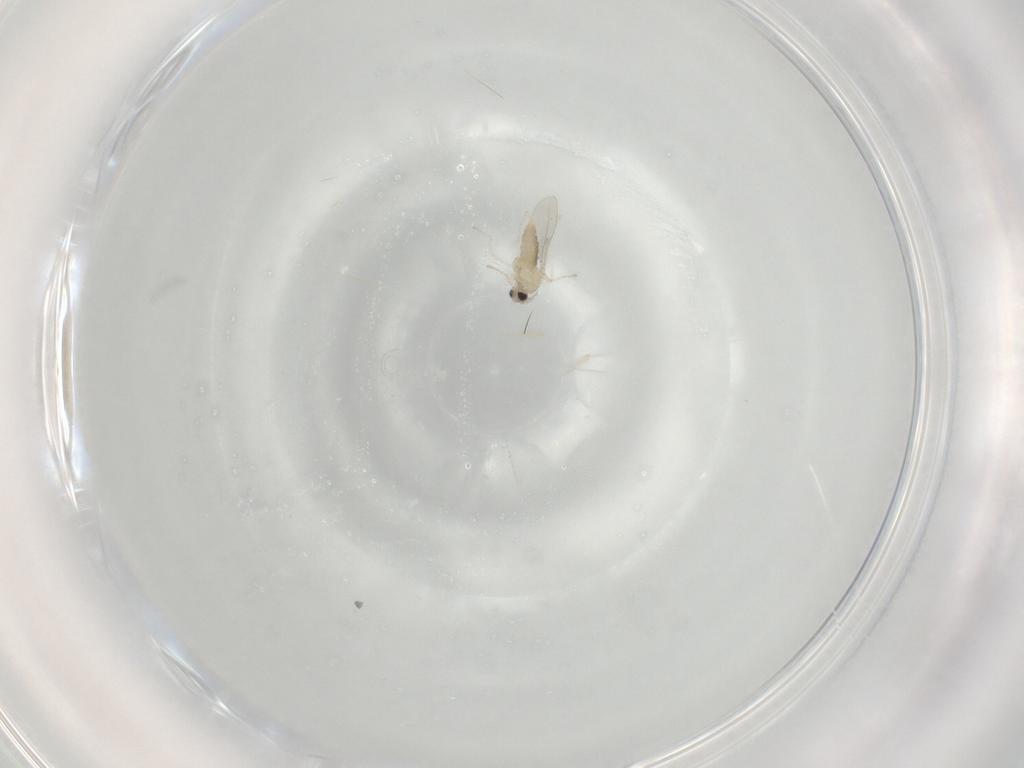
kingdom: Animalia
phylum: Arthropoda
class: Insecta
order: Diptera
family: Cecidomyiidae
